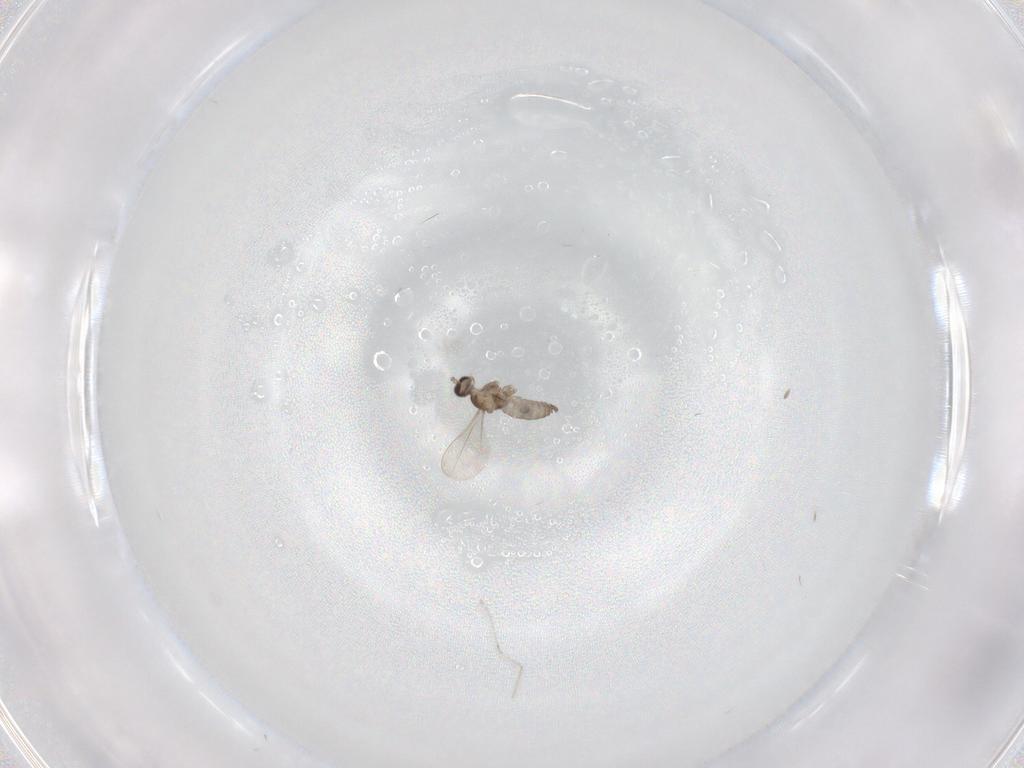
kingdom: Animalia
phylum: Arthropoda
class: Insecta
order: Diptera
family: Cecidomyiidae
